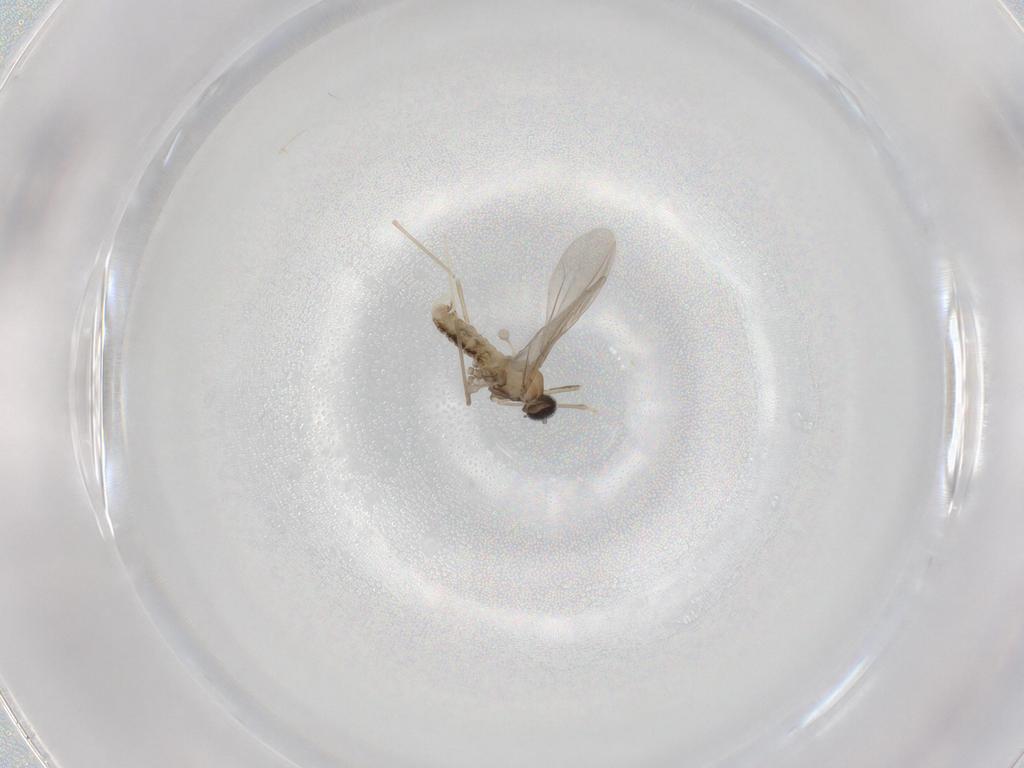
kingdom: Animalia
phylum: Arthropoda
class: Insecta
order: Diptera
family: Cecidomyiidae
